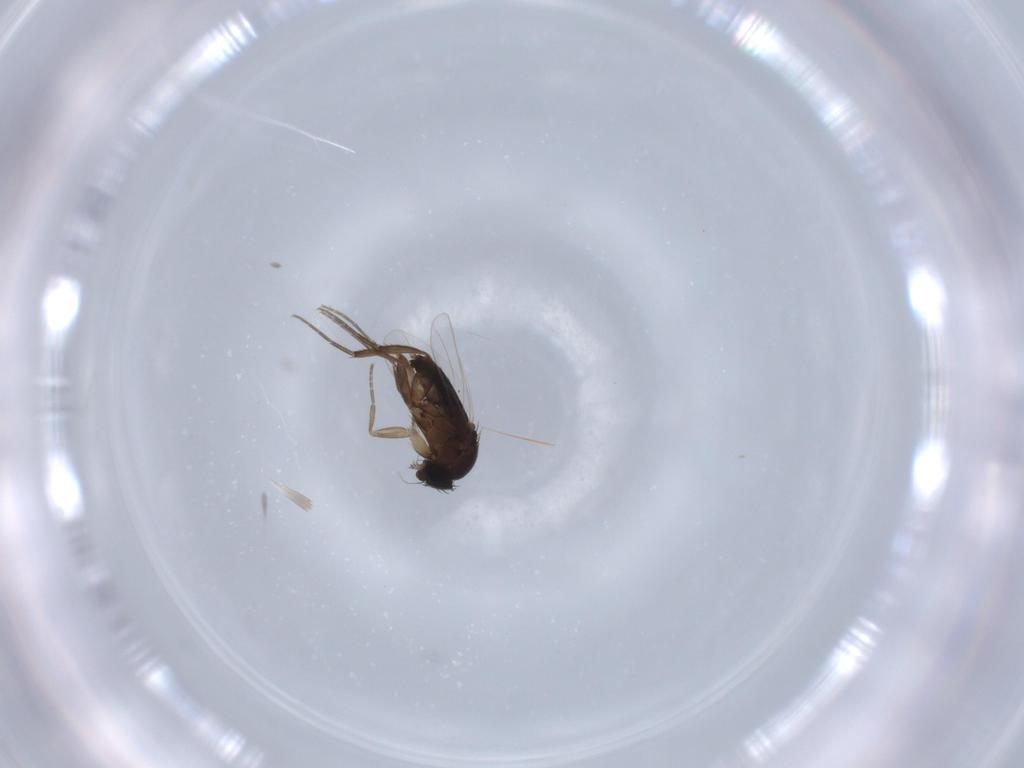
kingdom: Animalia
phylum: Arthropoda
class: Insecta
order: Diptera
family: Phoridae
